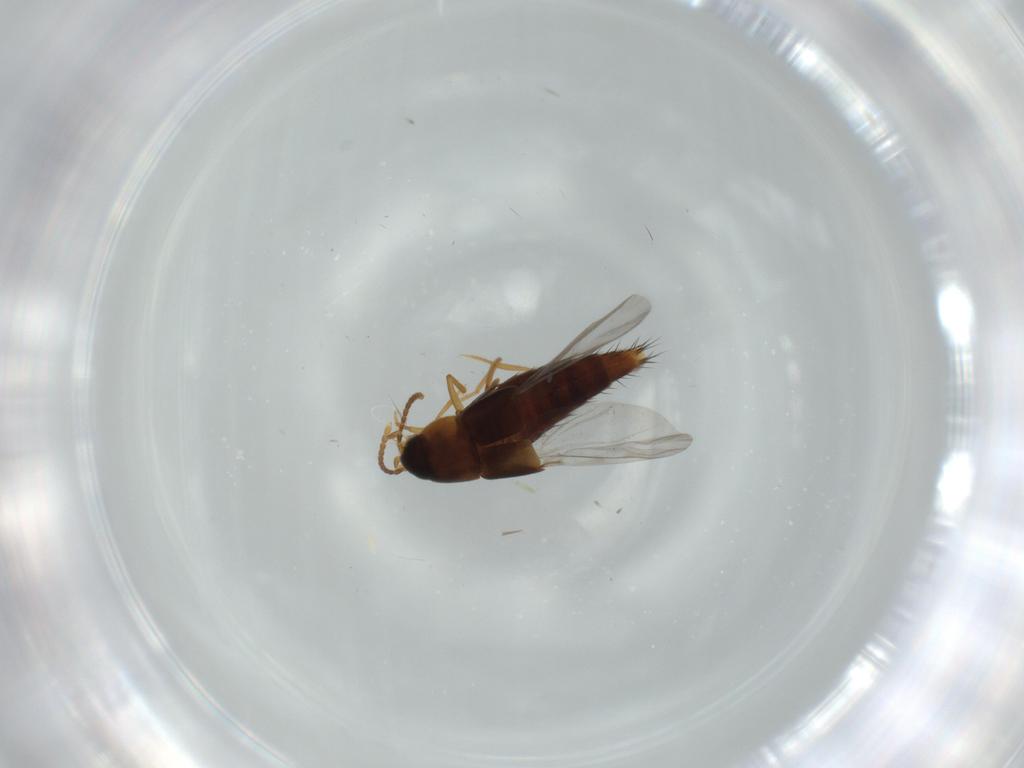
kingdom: Animalia
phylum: Arthropoda
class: Insecta
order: Coleoptera
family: Staphylinidae
